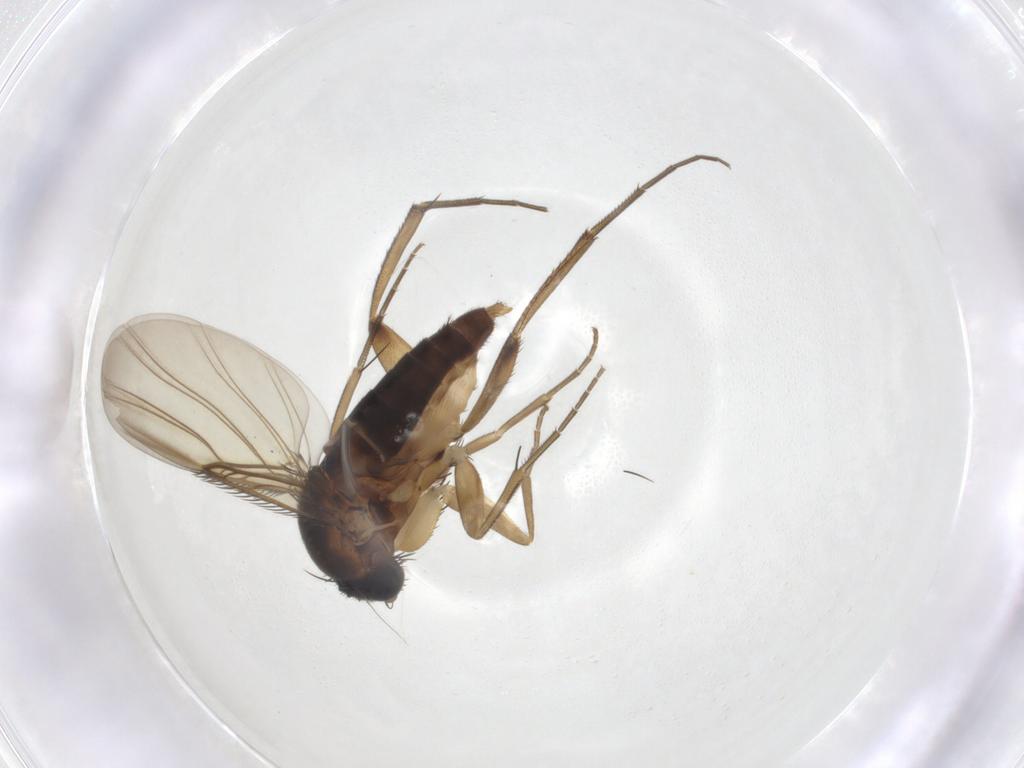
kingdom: Animalia
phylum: Arthropoda
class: Insecta
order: Diptera
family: Phoridae
